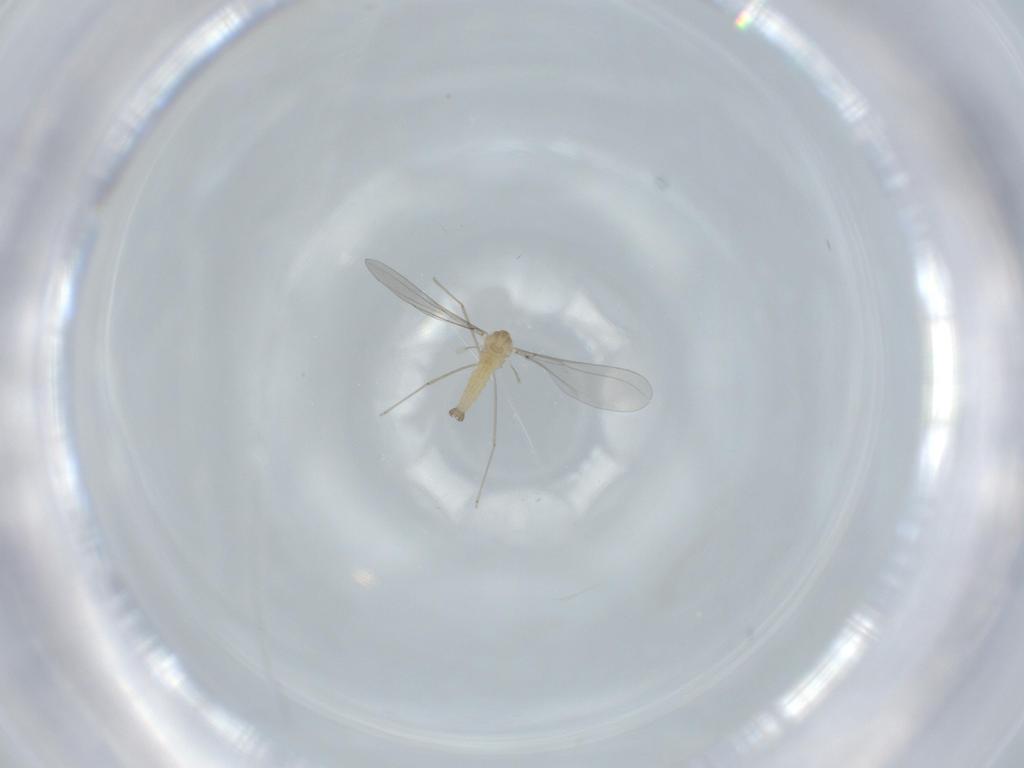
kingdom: Animalia
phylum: Arthropoda
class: Insecta
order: Diptera
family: Cecidomyiidae
